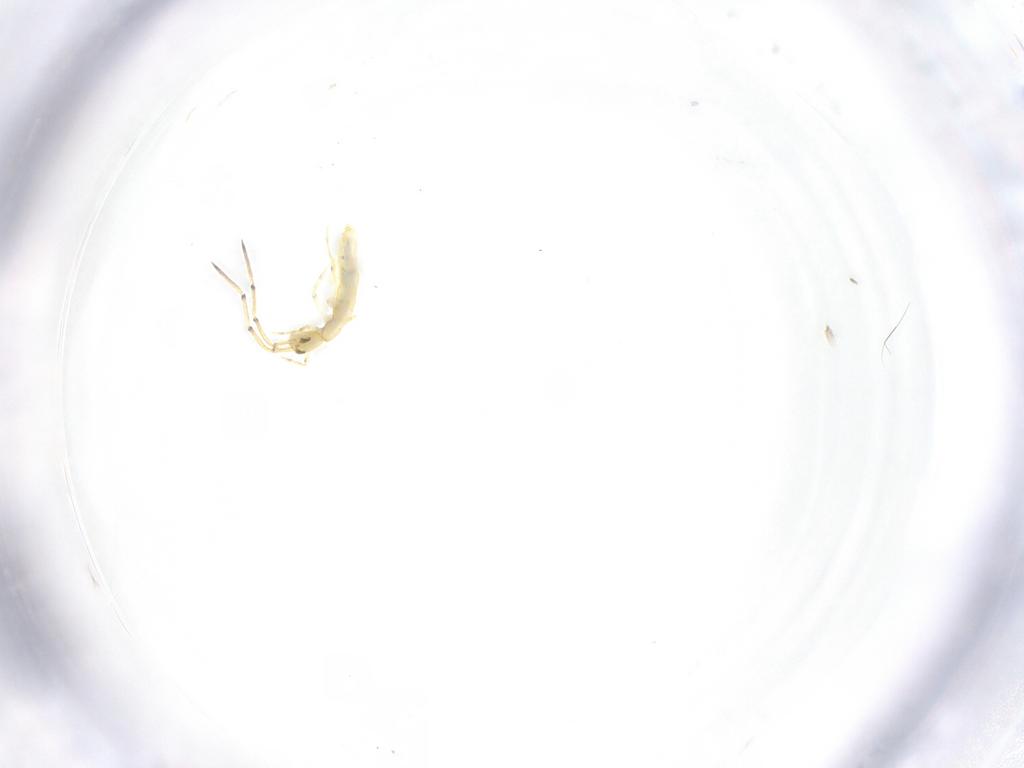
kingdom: Animalia
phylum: Arthropoda
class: Collembola
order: Entomobryomorpha
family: Paronellidae
